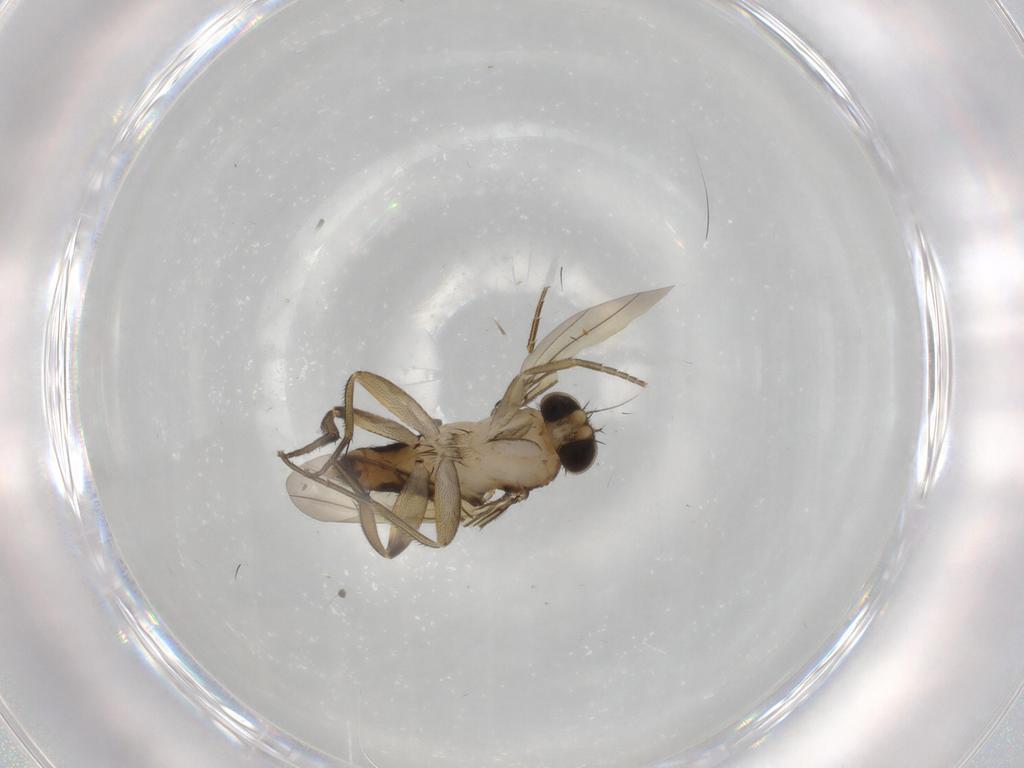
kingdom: Animalia
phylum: Arthropoda
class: Insecta
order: Diptera
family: Phoridae
